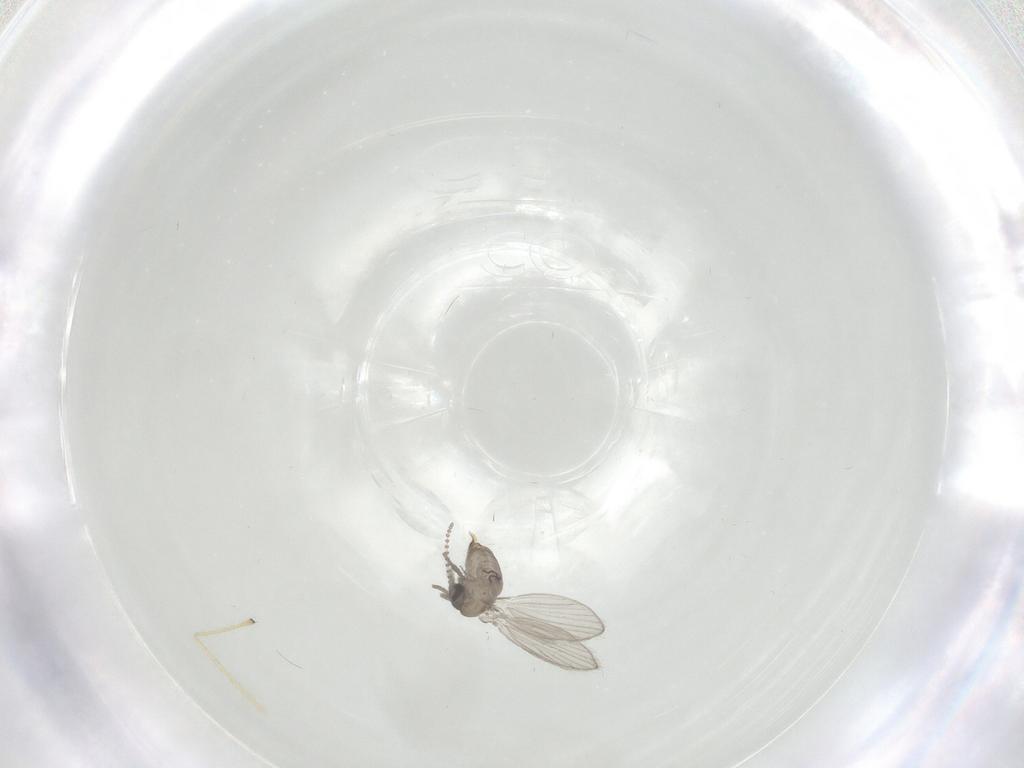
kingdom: Animalia
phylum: Arthropoda
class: Insecta
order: Diptera
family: Psychodidae
